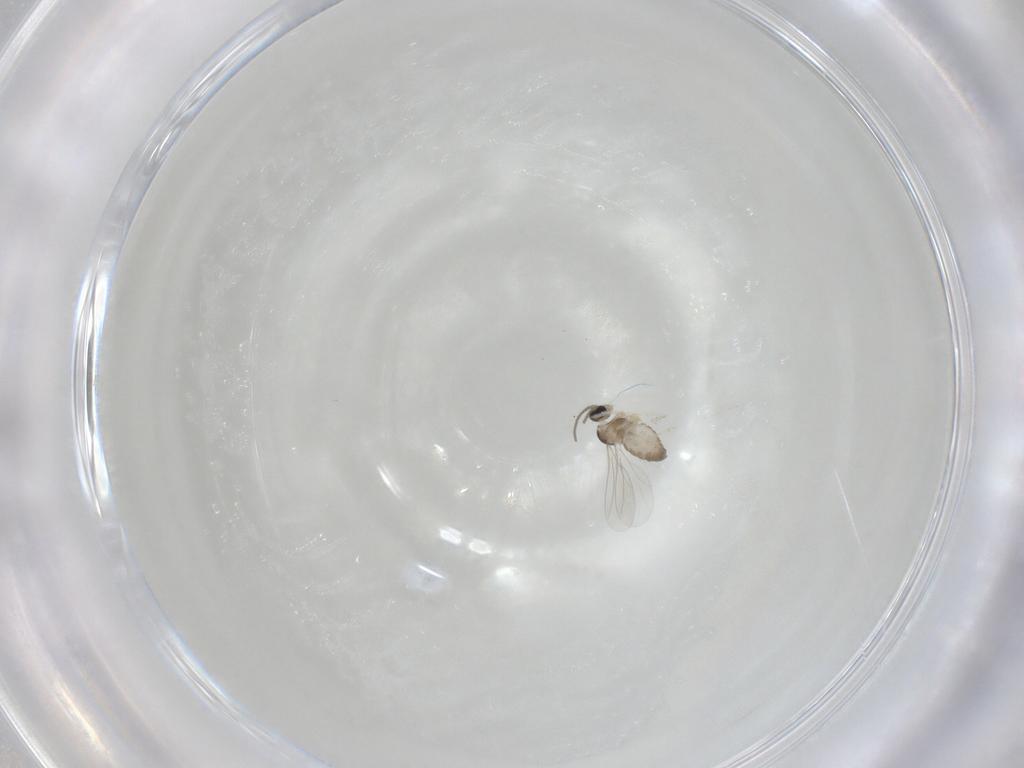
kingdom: Animalia
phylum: Arthropoda
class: Insecta
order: Diptera
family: Cecidomyiidae
